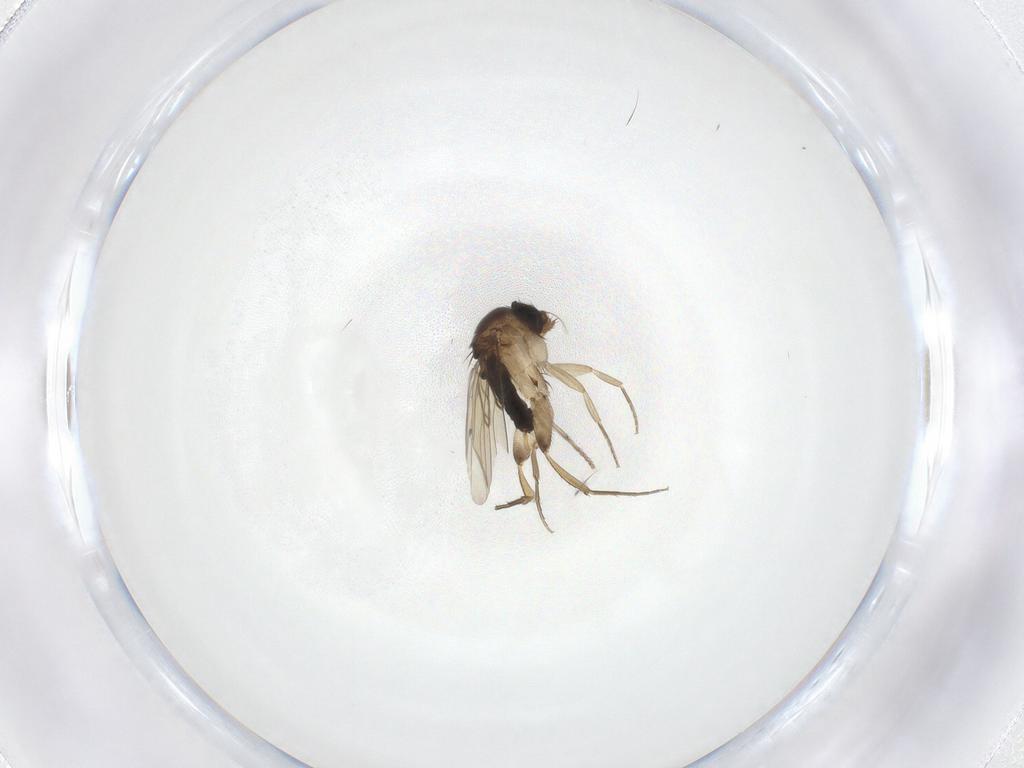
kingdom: Animalia
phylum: Arthropoda
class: Insecta
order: Diptera
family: Phoridae
